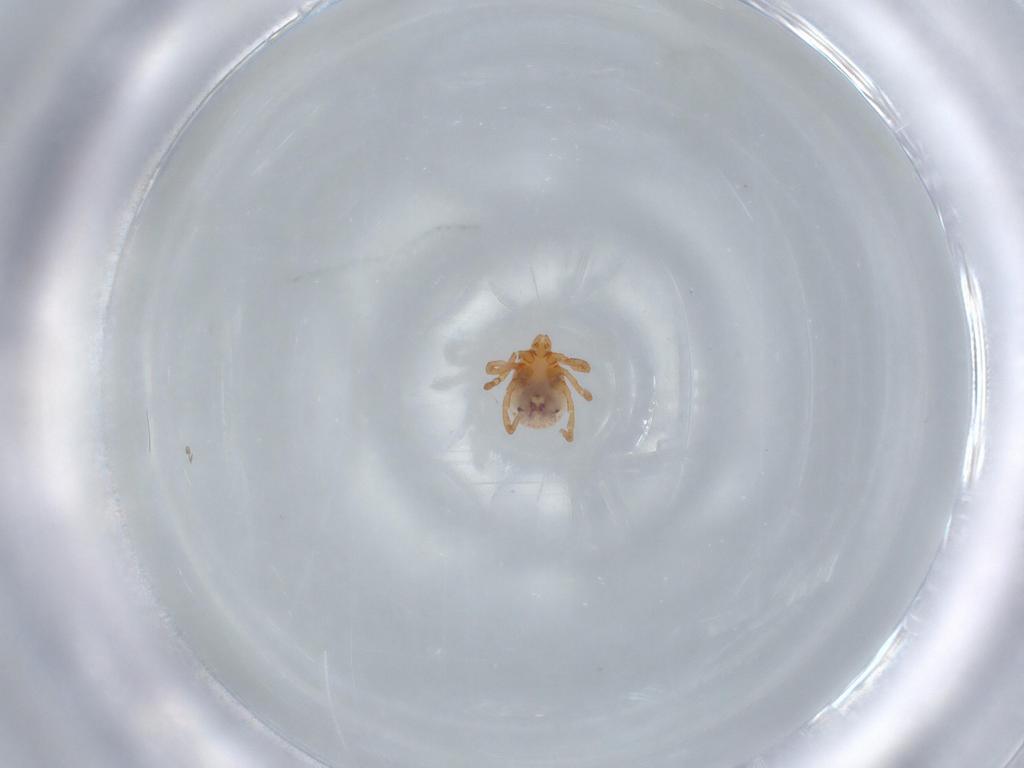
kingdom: Animalia
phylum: Arthropoda
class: Arachnida
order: Ixodida
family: Ixodidae
